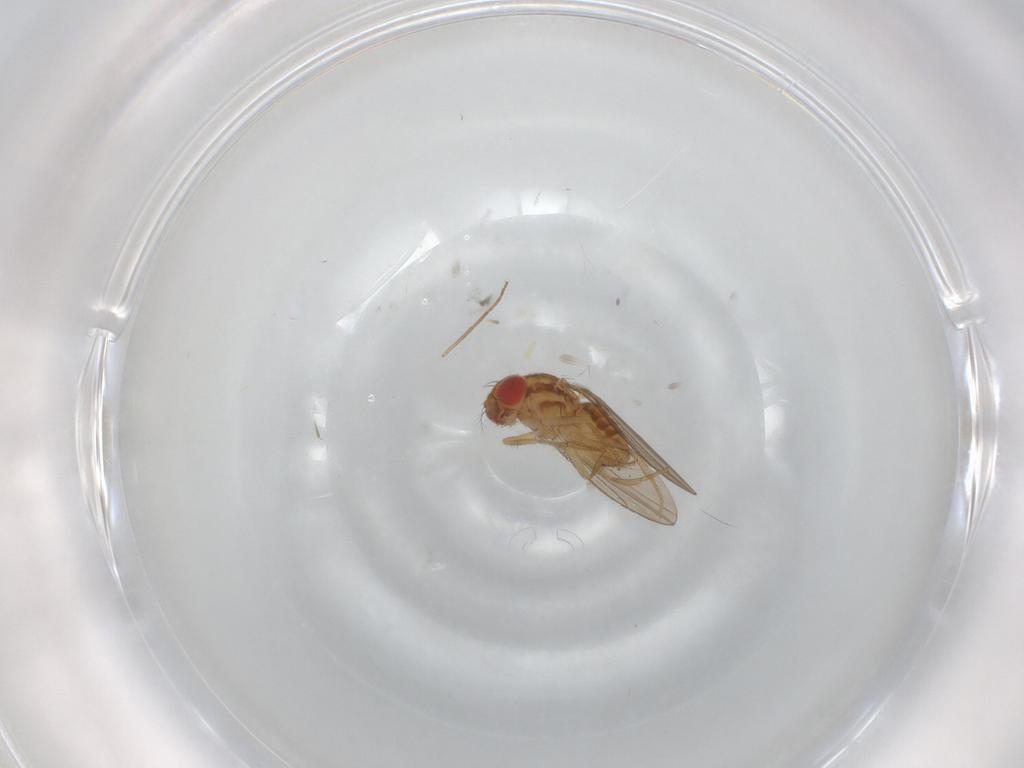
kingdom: Animalia
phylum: Arthropoda
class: Insecta
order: Diptera
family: Drosophilidae
